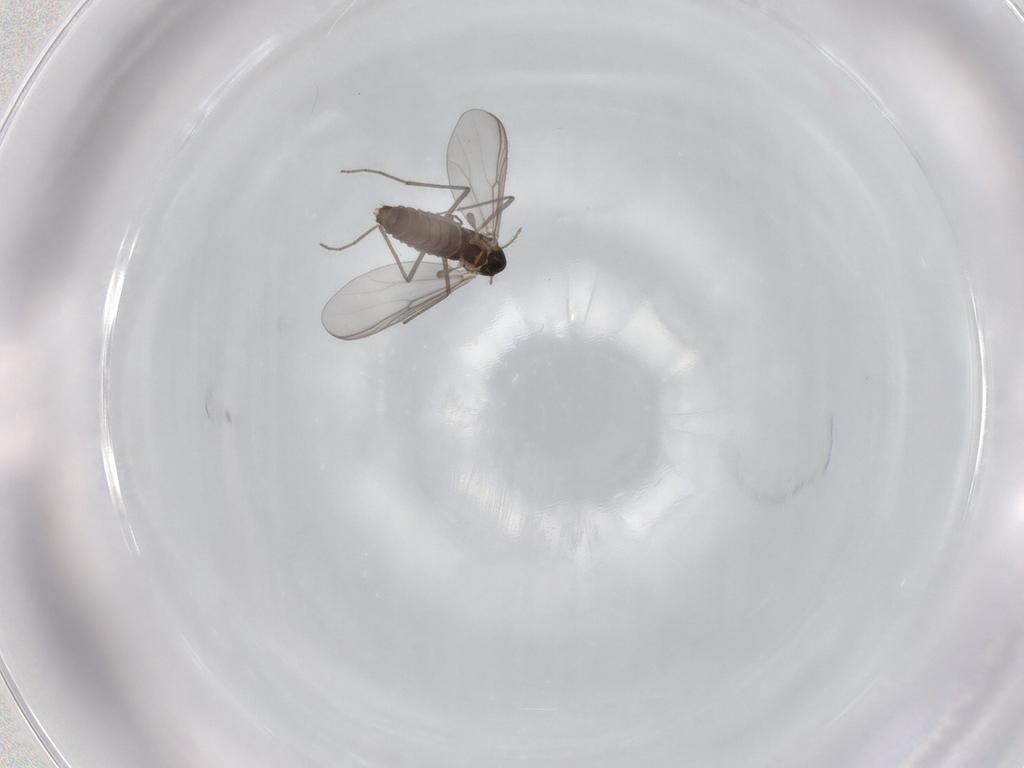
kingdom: Animalia
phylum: Arthropoda
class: Insecta
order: Diptera
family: Chironomidae
